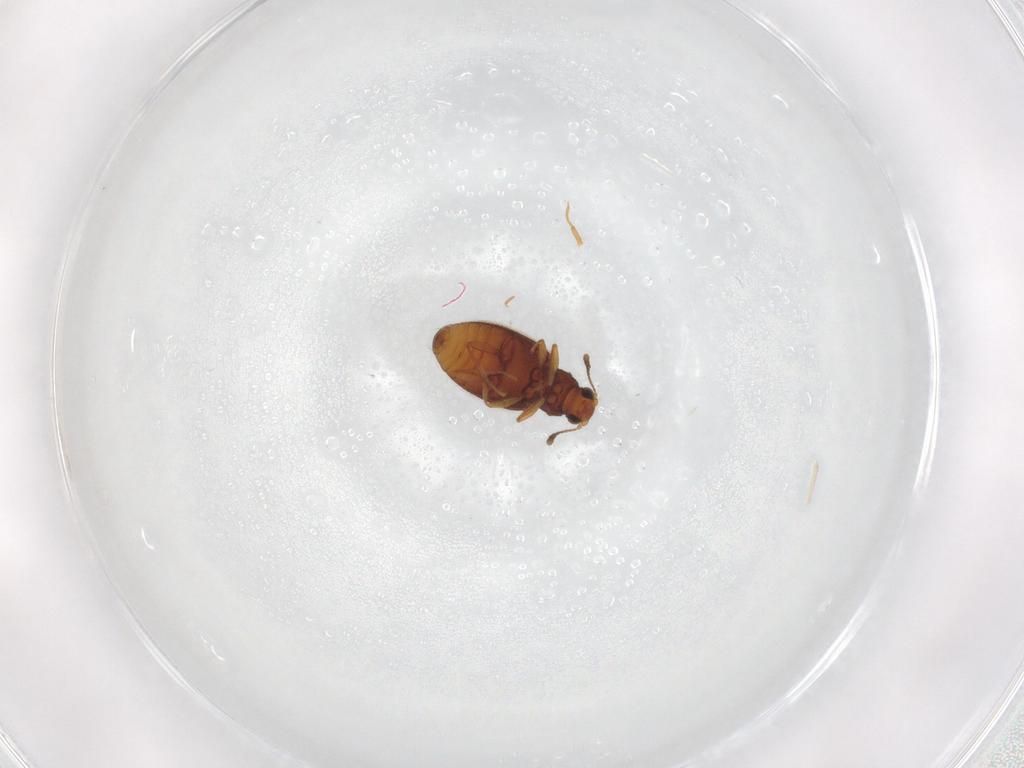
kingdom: Animalia
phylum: Arthropoda
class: Insecta
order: Coleoptera
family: Latridiidae
